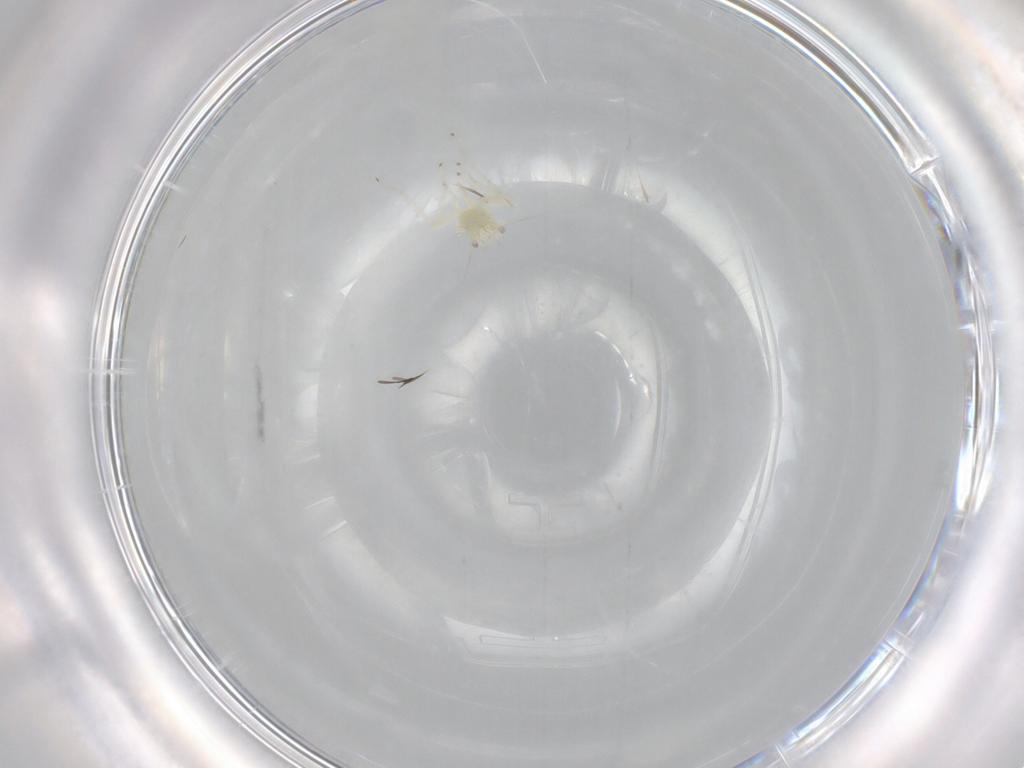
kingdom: Animalia
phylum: Arthropoda
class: Insecta
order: Hemiptera
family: Cicadellidae
